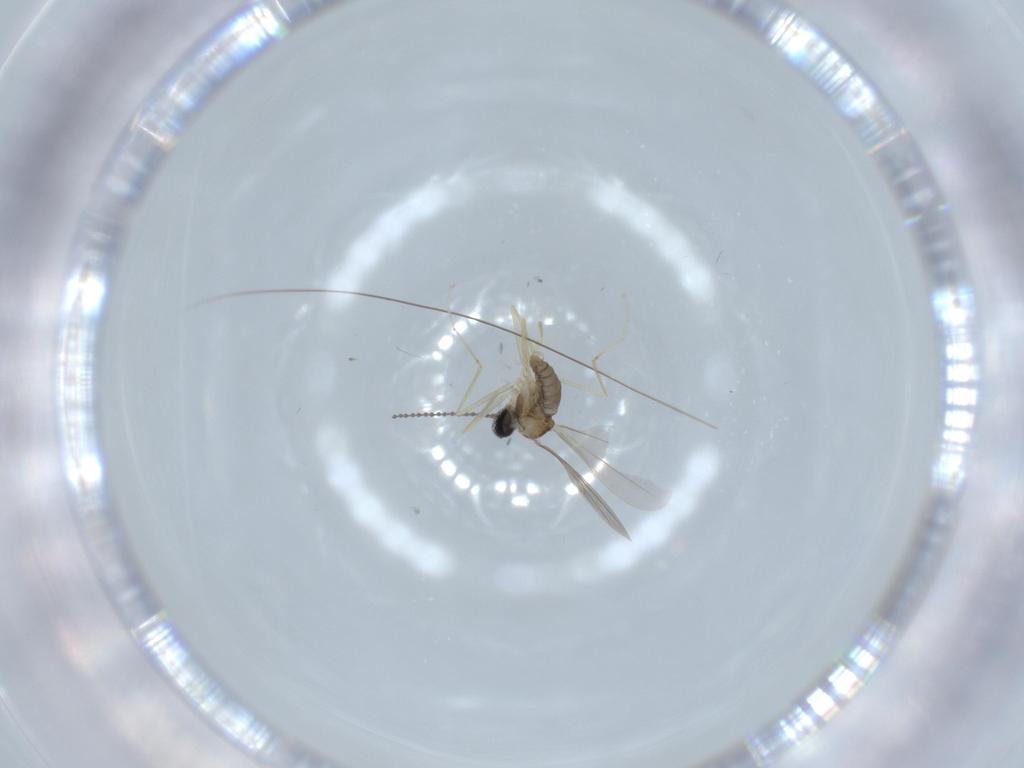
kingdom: Animalia
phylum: Arthropoda
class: Insecta
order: Diptera
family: Cecidomyiidae
